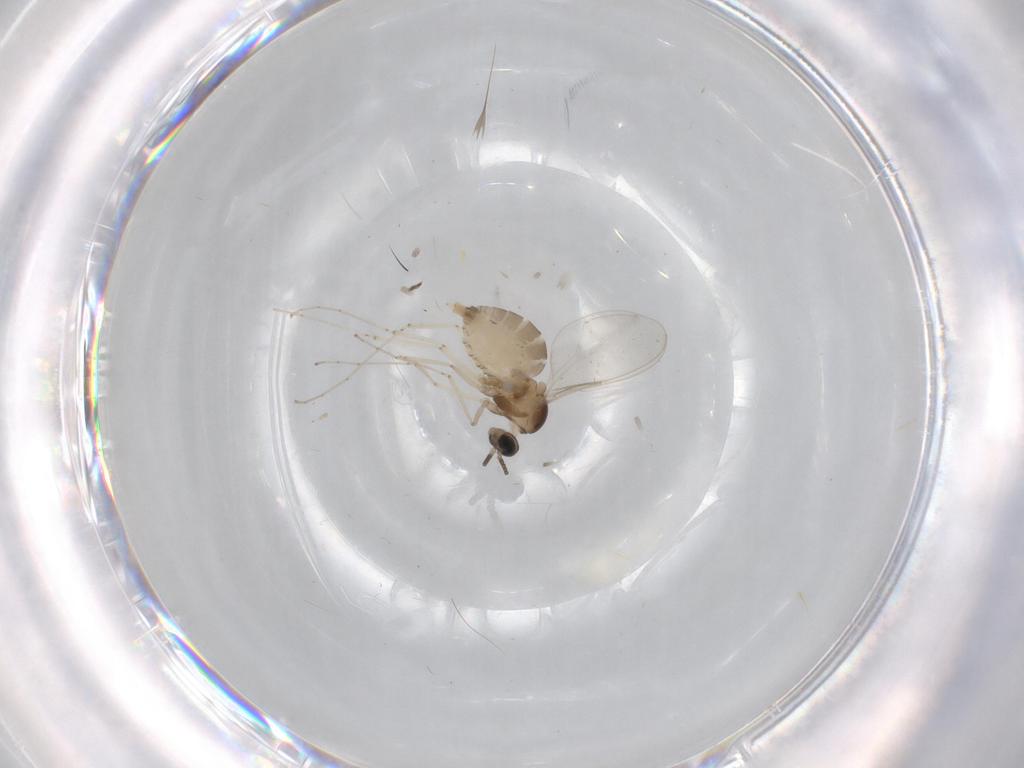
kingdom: Animalia
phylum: Arthropoda
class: Insecta
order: Diptera
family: Cecidomyiidae
